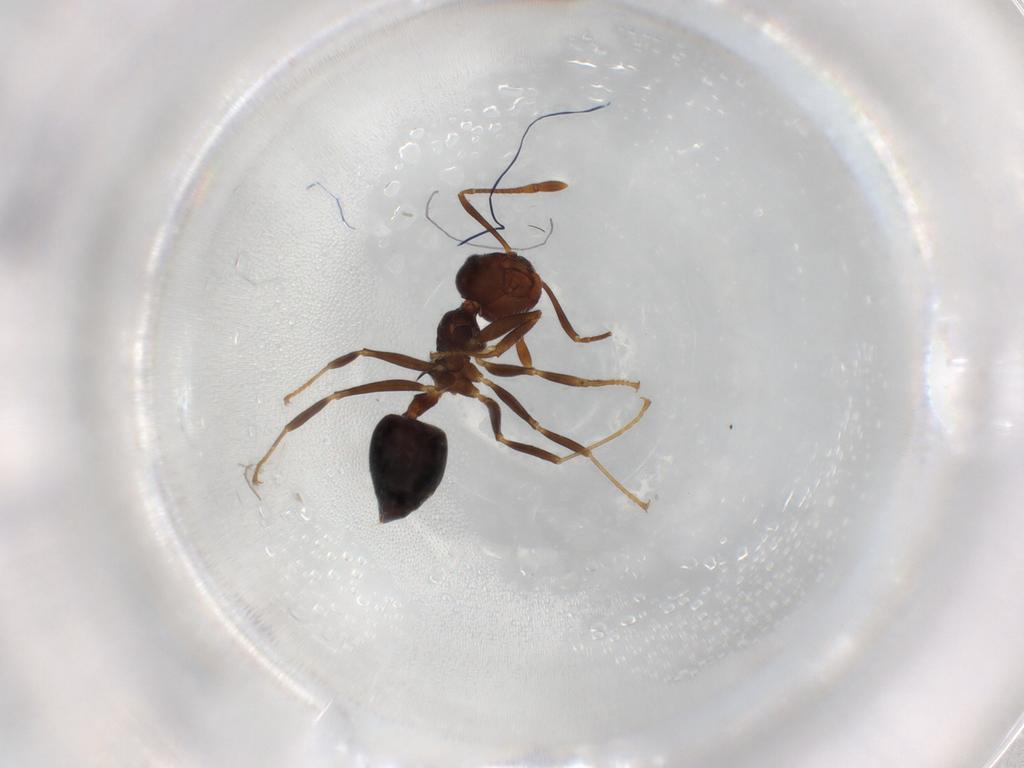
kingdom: Animalia
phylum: Arthropoda
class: Insecta
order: Hymenoptera
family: Formicidae
